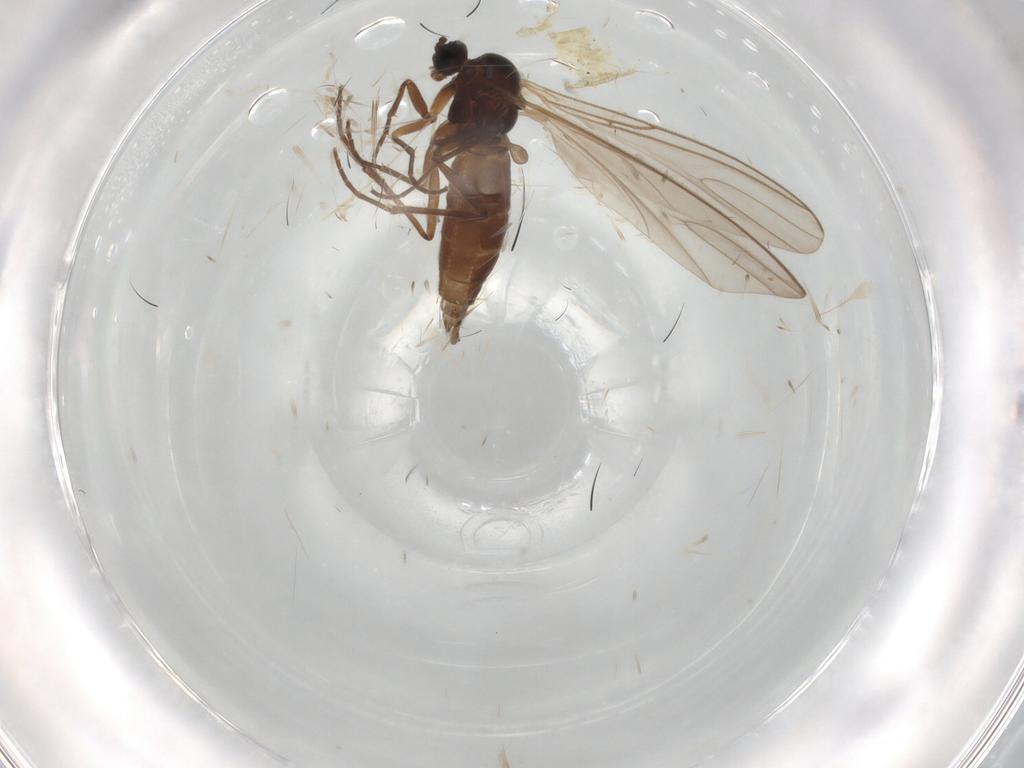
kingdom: Animalia
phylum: Arthropoda
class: Insecta
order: Diptera
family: Muscidae
